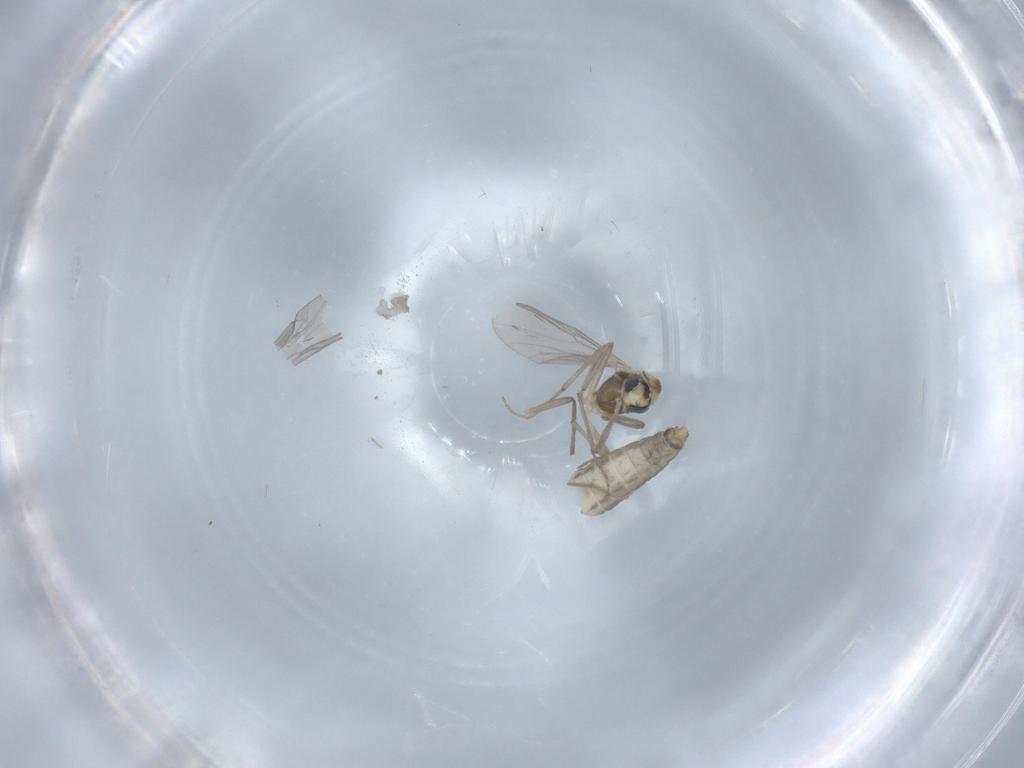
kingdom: Animalia
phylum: Arthropoda
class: Insecta
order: Diptera
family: Chironomidae
